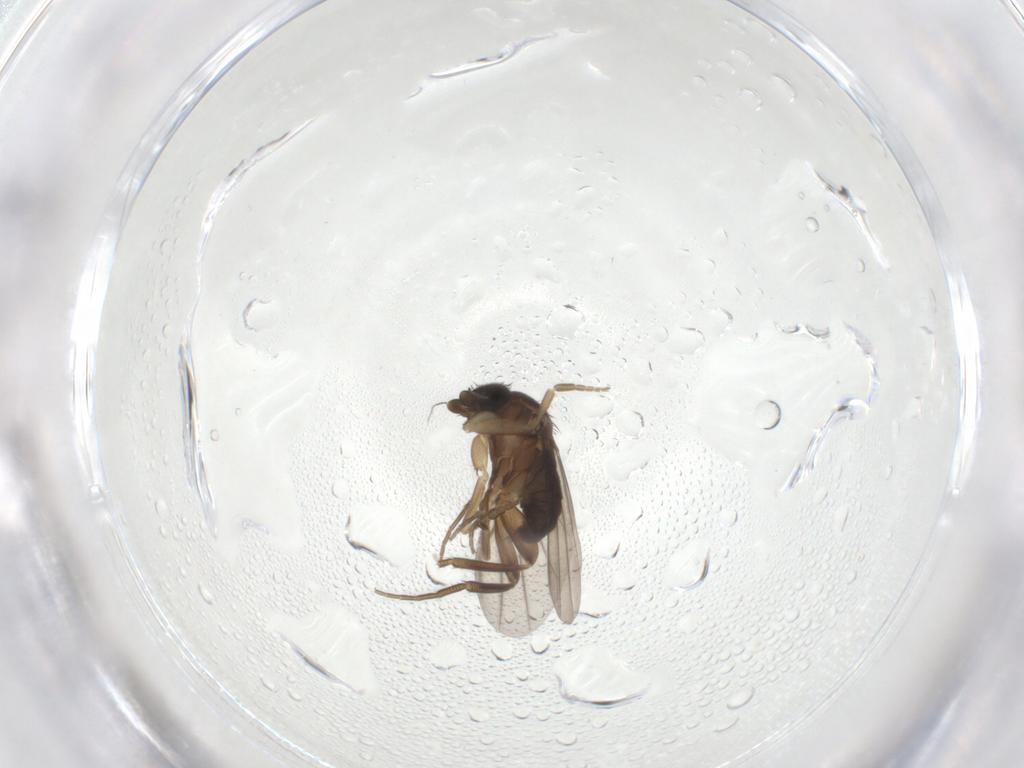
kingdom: Animalia
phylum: Arthropoda
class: Insecta
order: Diptera
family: Phoridae
